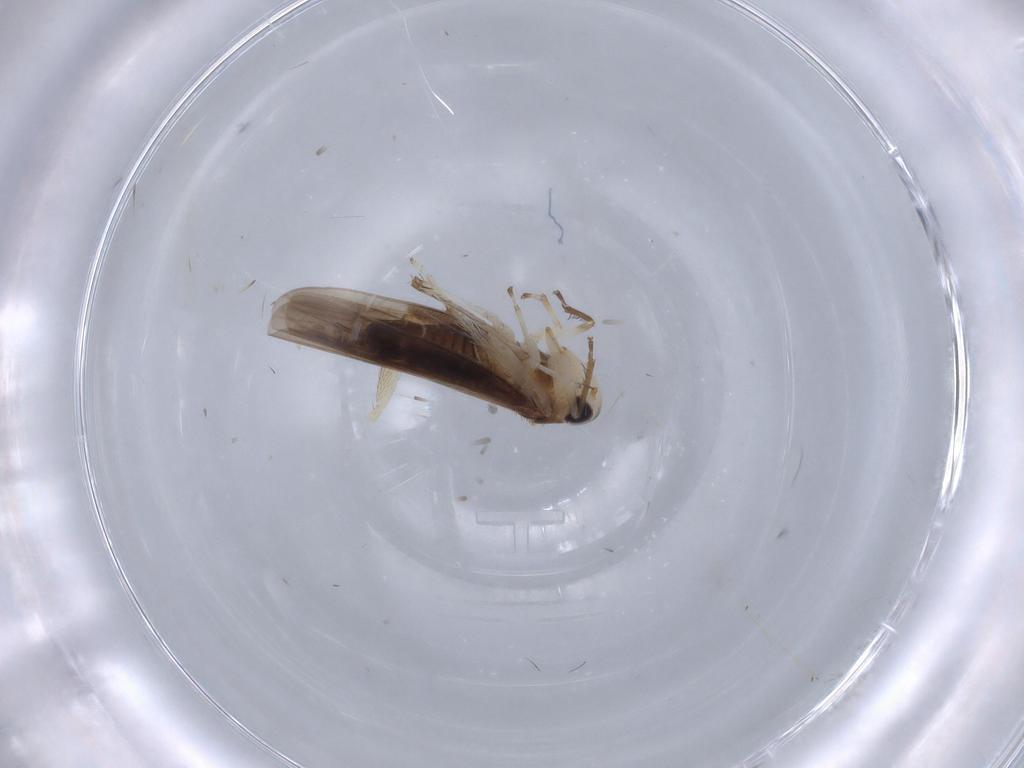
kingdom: Animalia
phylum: Arthropoda
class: Insecta
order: Hemiptera
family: Cicadellidae
